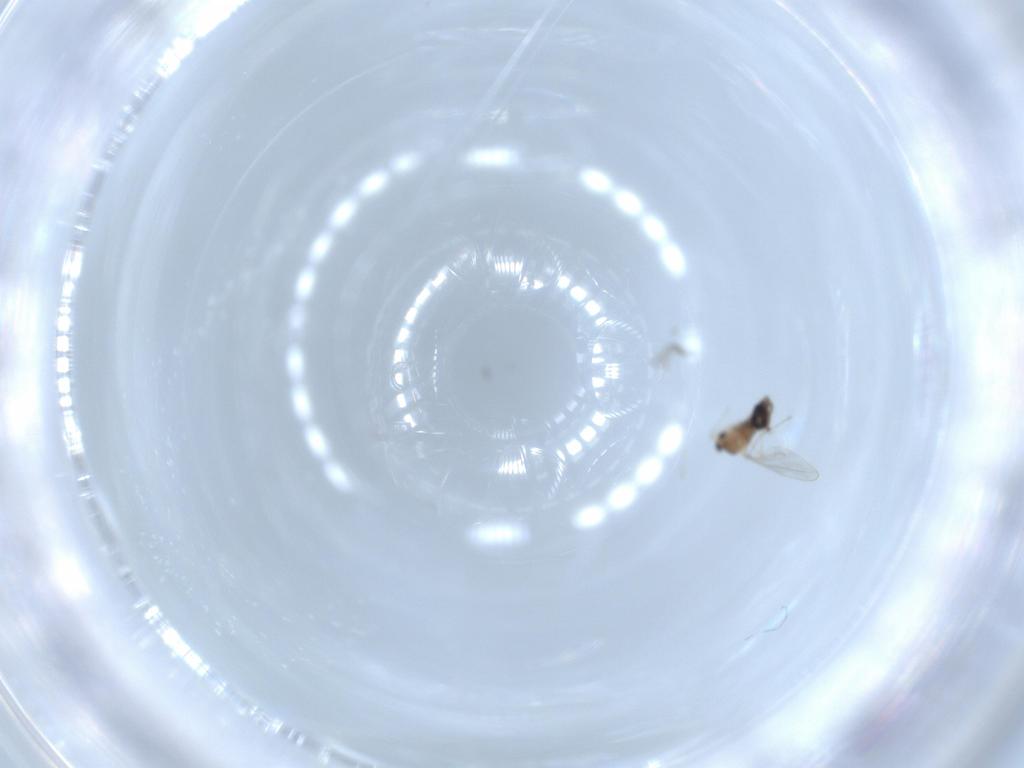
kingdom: Animalia
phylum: Arthropoda
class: Insecta
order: Diptera
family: Cecidomyiidae
